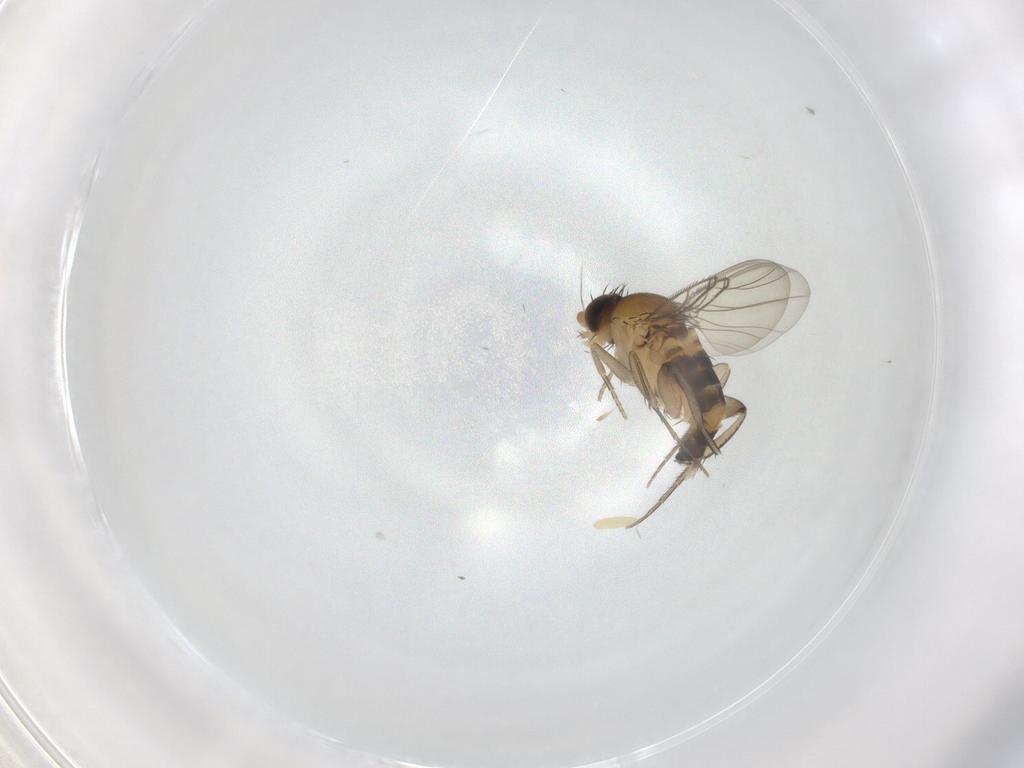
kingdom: Animalia
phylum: Arthropoda
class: Insecta
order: Diptera
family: Phoridae
